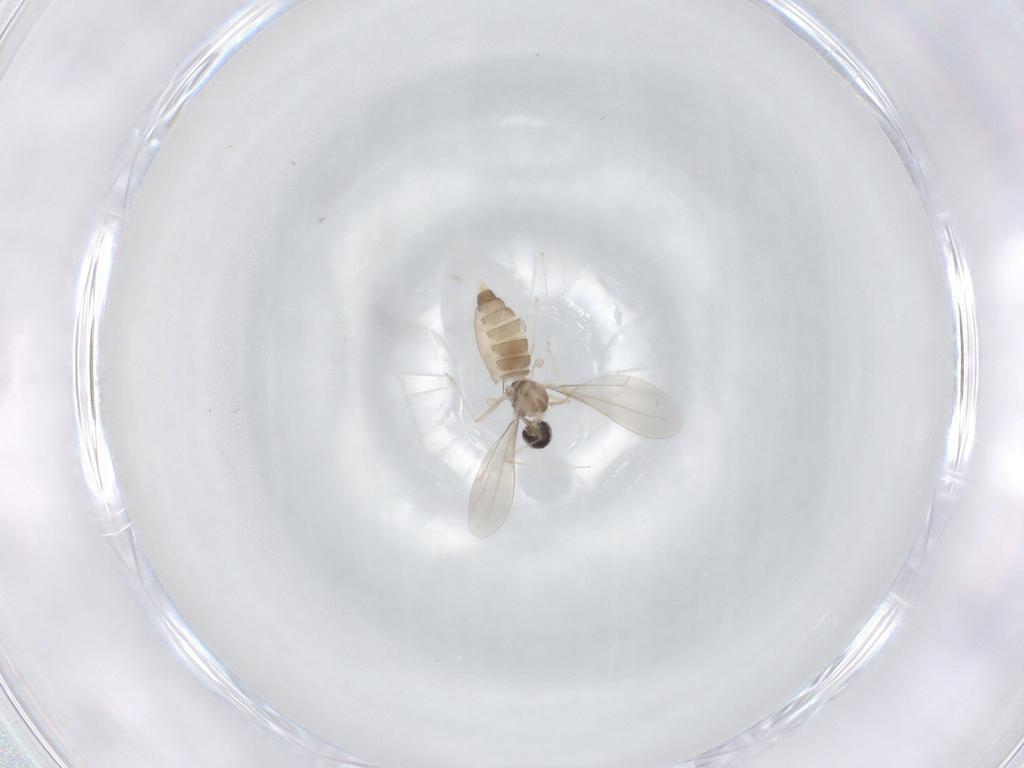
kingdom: Animalia
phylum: Arthropoda
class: Insecta
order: Diptera
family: Cecidomyiidae
